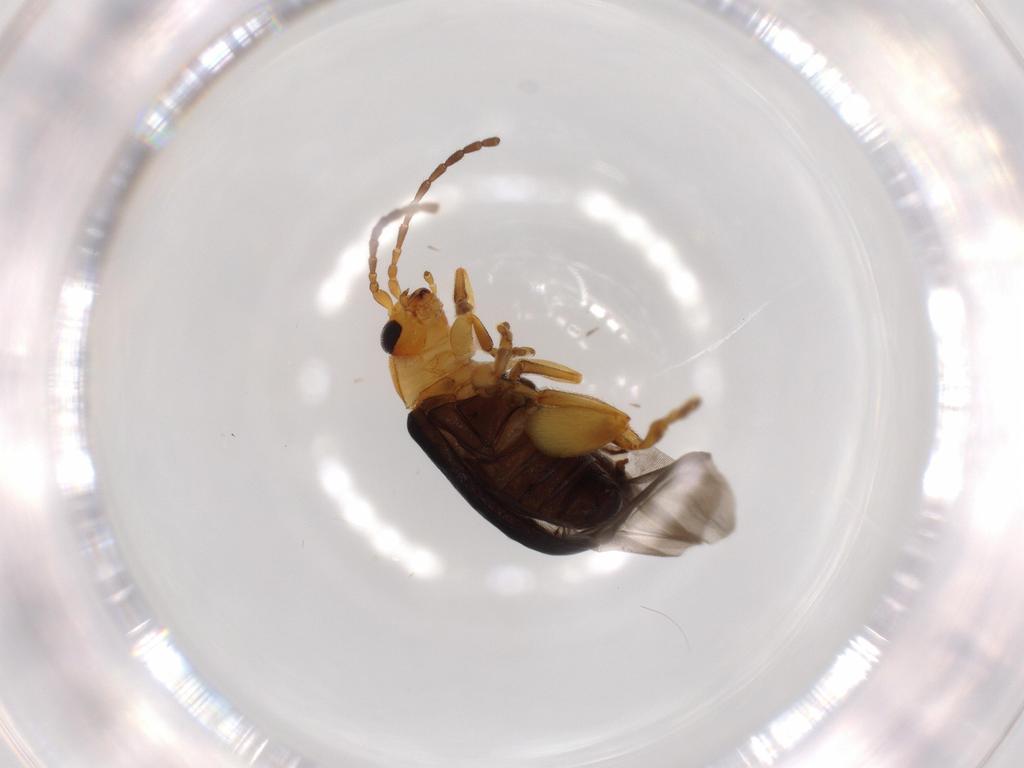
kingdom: Animalia
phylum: Arthropoda
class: Insecta
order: Coleoptera
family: Chrysomelidae
